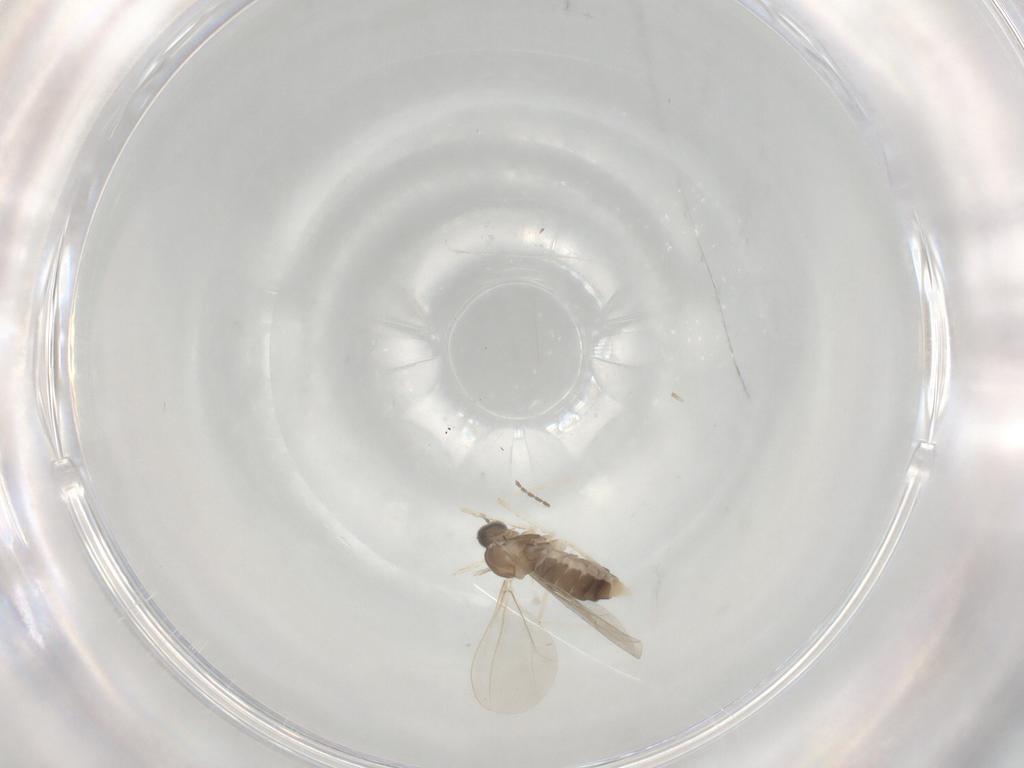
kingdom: Animalia
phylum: Arthropoda
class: Insecta
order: Diptera
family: Cecidomyiidae
